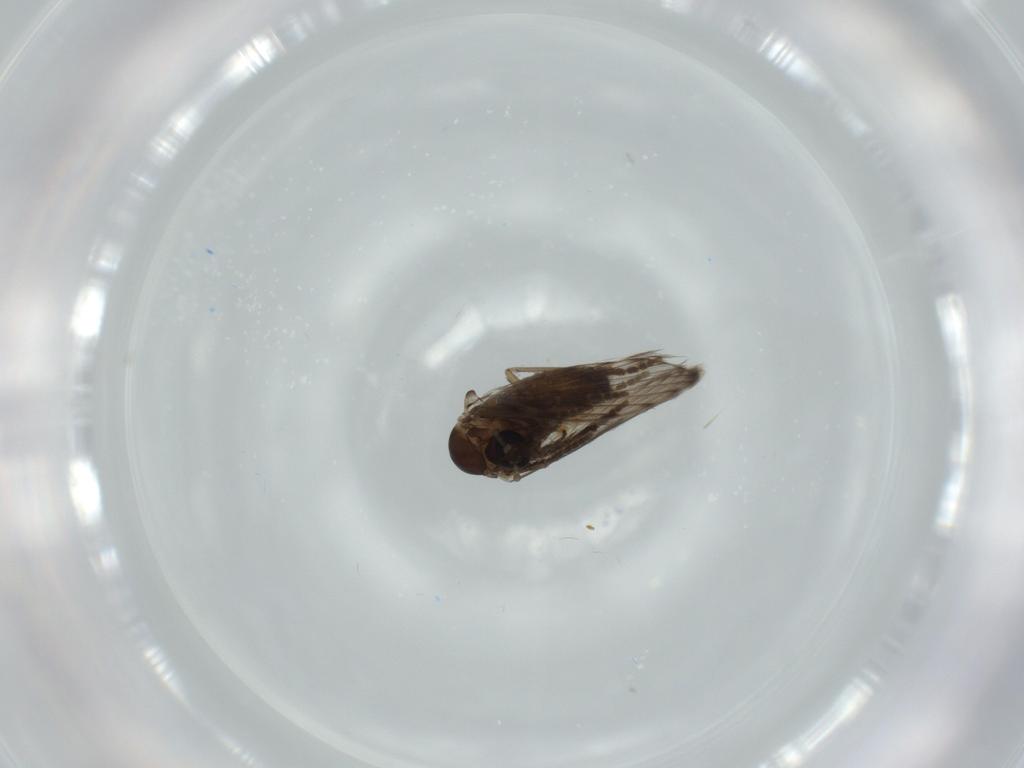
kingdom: Animalia
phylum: Arthropoda
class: Insecta
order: Diptera
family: Psychodidae
